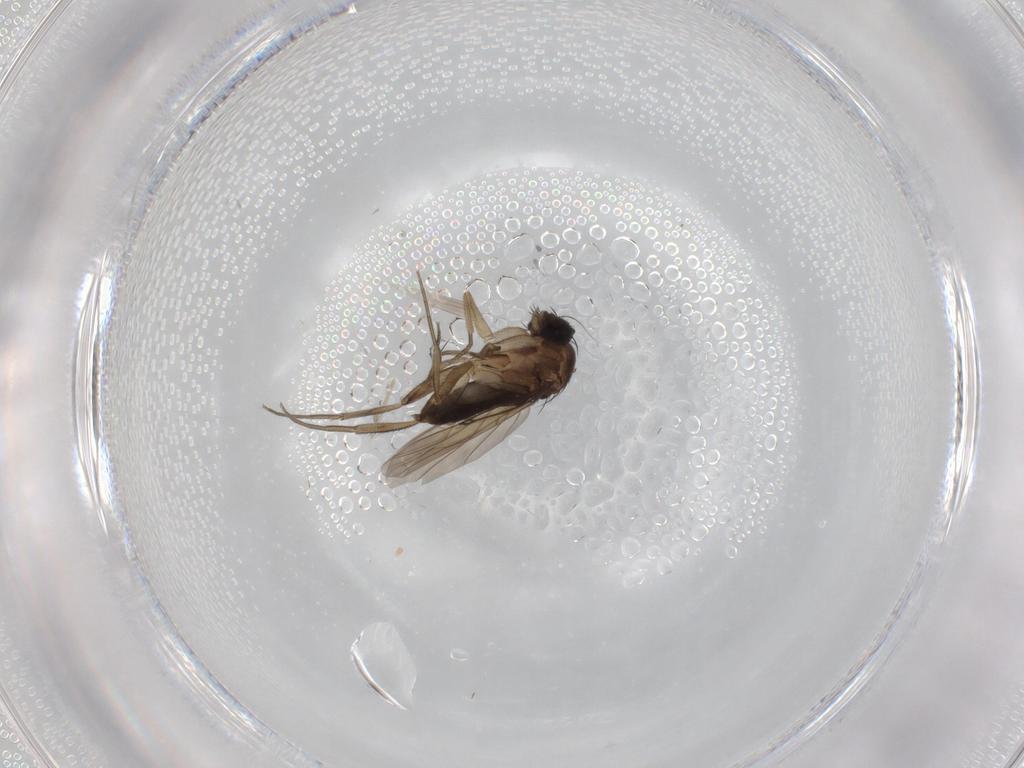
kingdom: Animalia
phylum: Arthropoda
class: Insecta
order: Diptera
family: Phoridae
